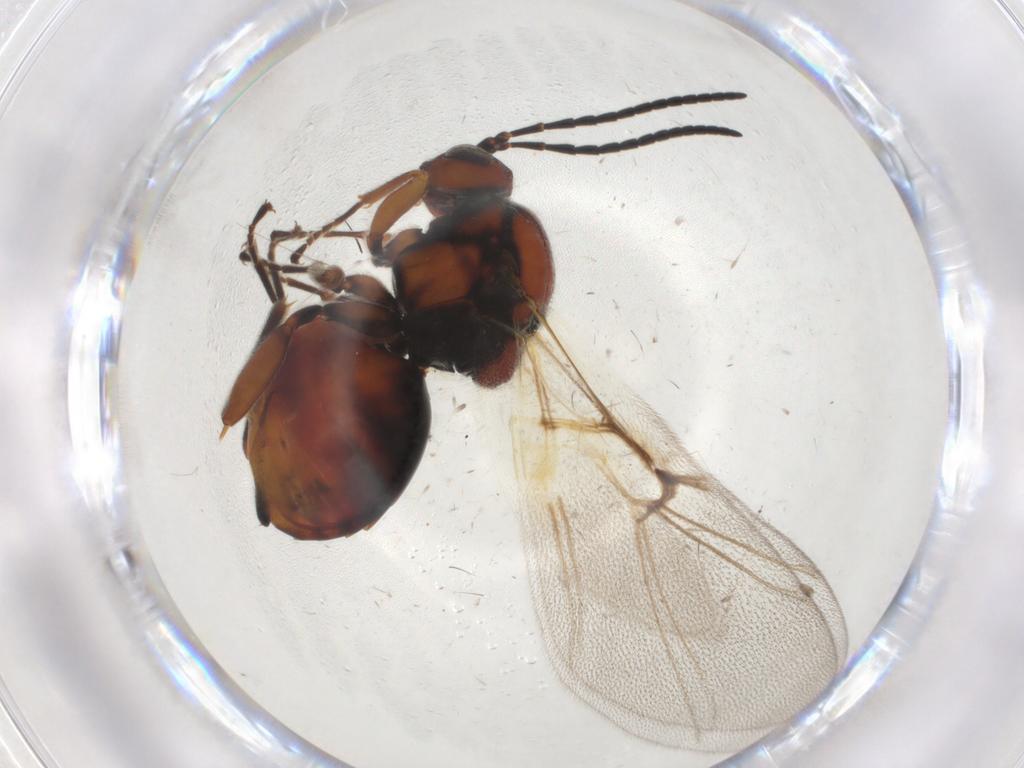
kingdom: Animalia
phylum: Arthropoda
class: Insecta
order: Hymenoptera
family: Cynipidae
